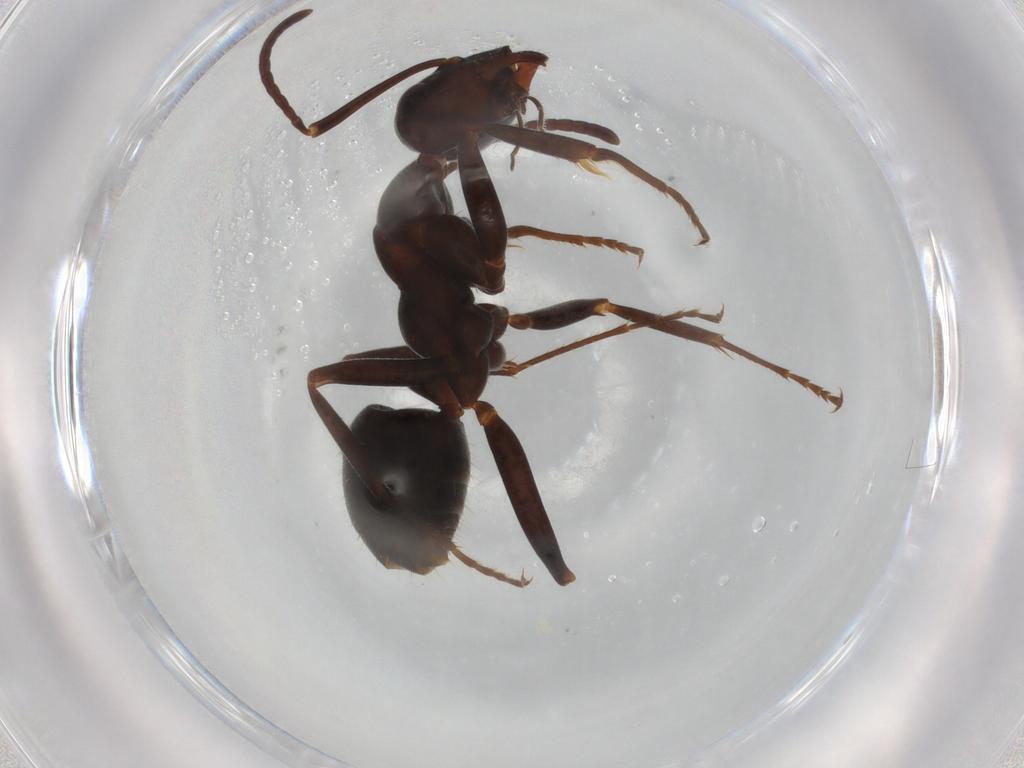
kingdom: Animalia
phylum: Arthropoda
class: Insecta
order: Hymenoptera
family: Formicidae
